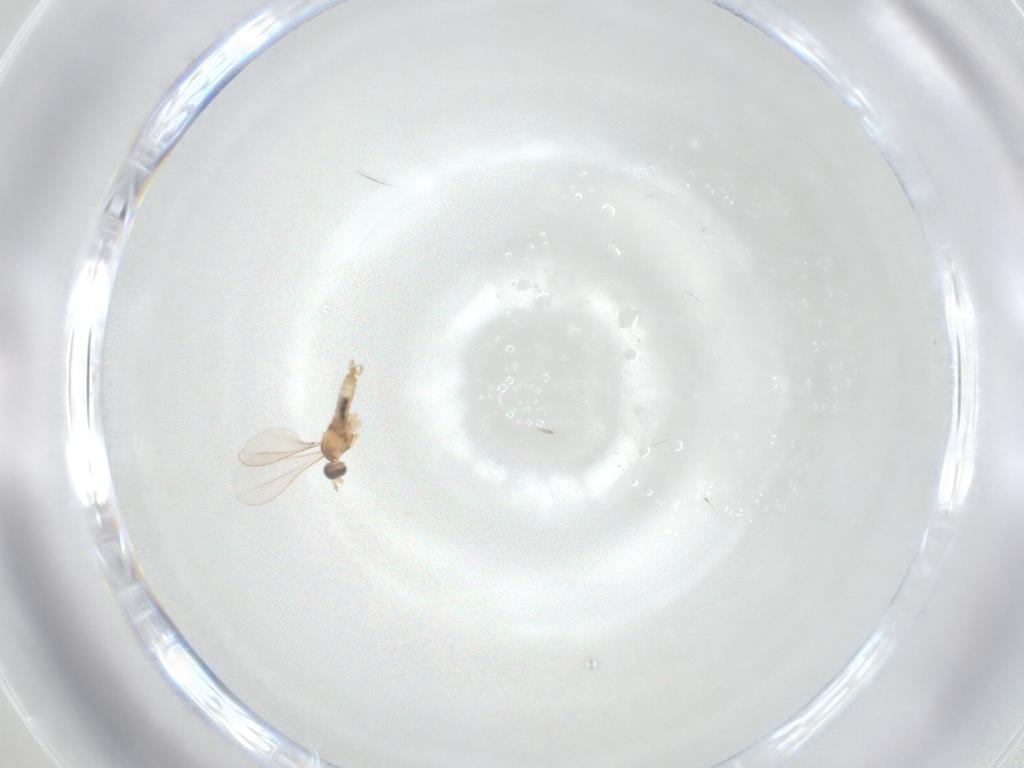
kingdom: Animalia
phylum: Arthropoda
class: Insecta
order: Diptera
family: Cecidomyiidae
